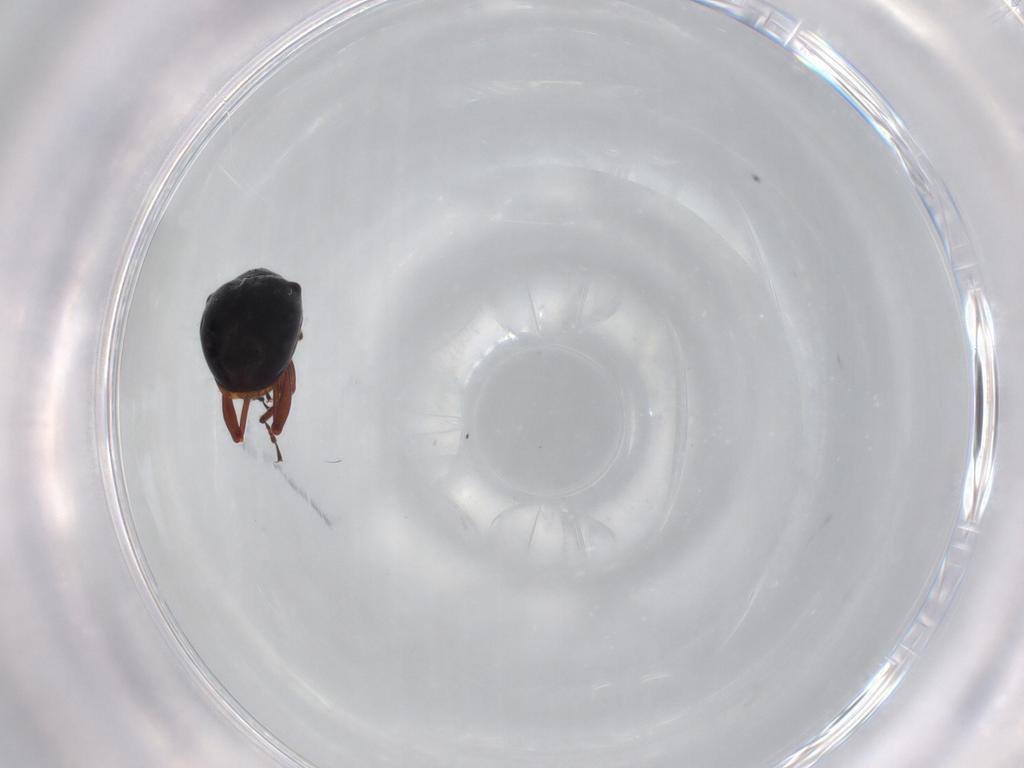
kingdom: Animalia
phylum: Arthropoda
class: Insecta
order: Coleoptera
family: Curculionidae
